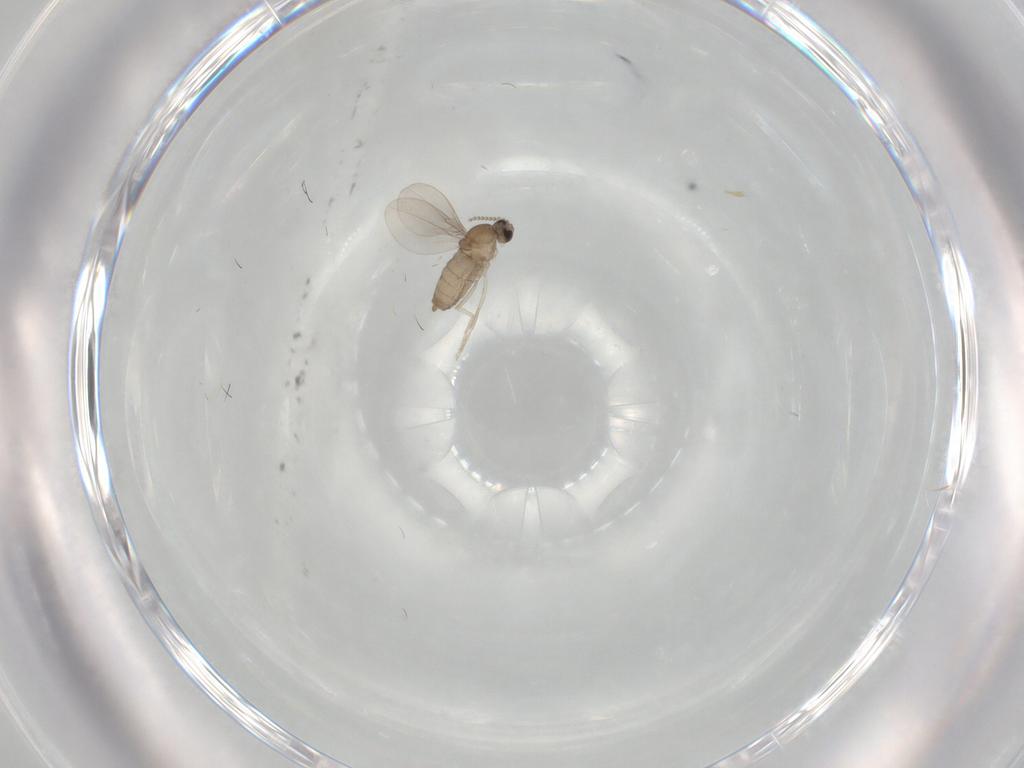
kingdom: Animalia
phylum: Arthropoda
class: Insecta
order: Diptera
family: Cecidomyiidae
